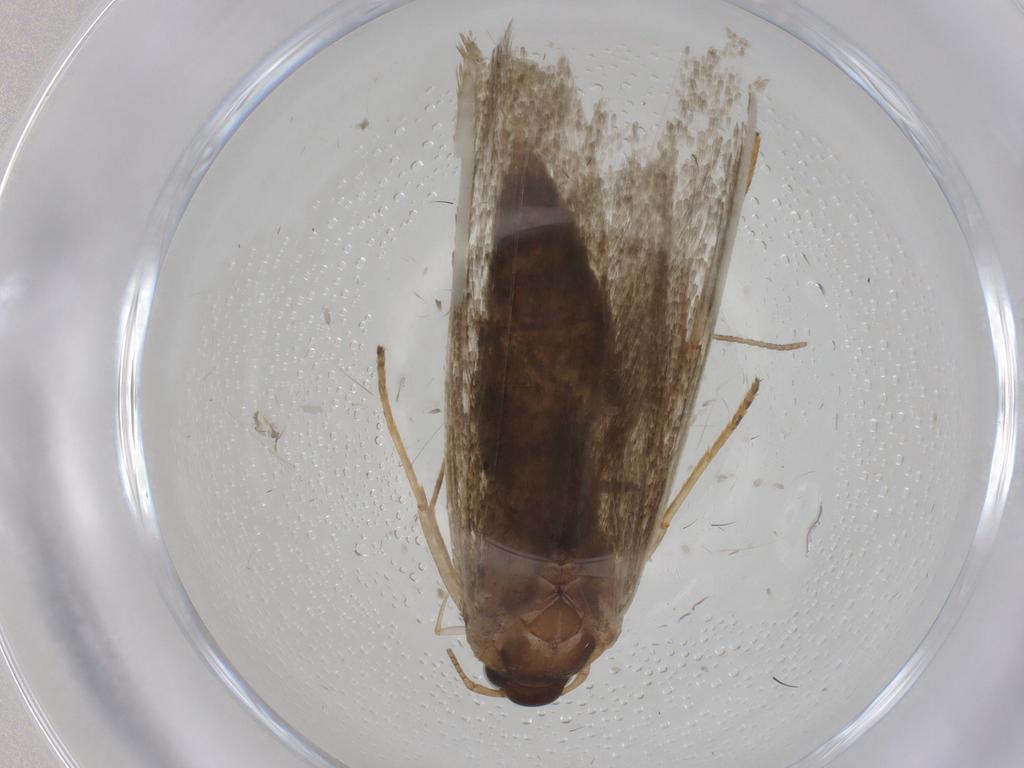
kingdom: Animalia
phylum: Arthropoda
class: Insecta
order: Lepidoptera
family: Blastobasidae
